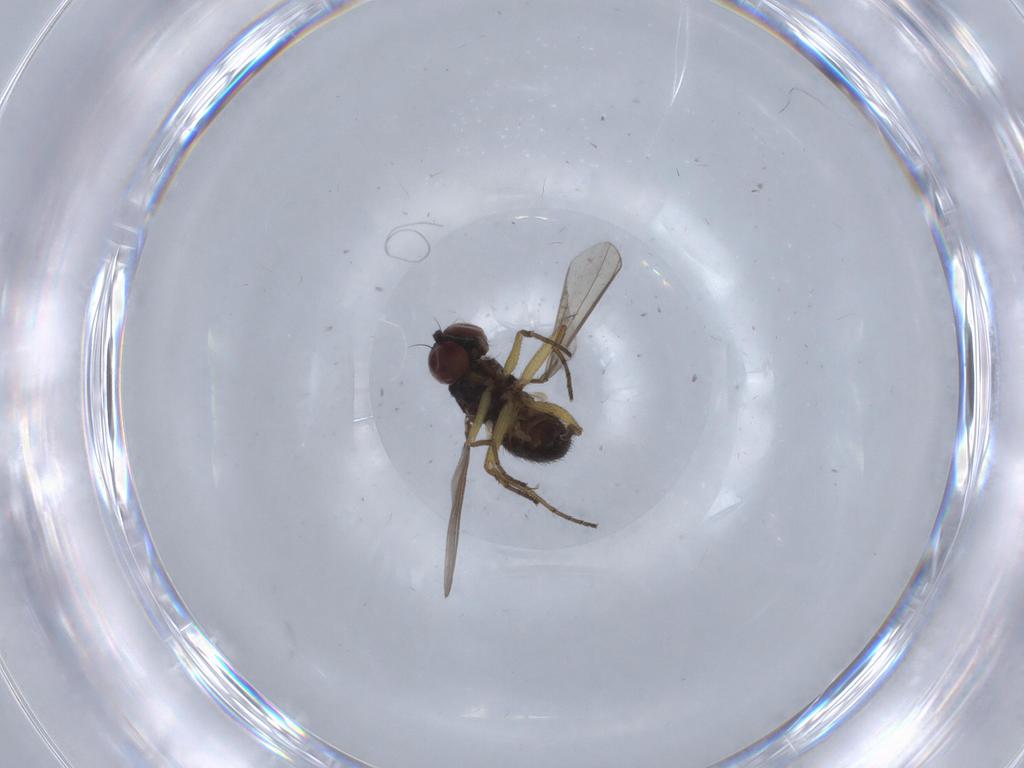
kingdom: Animalia
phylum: Arthropoda
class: Insecta
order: Diptera
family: Dolichopodidae
